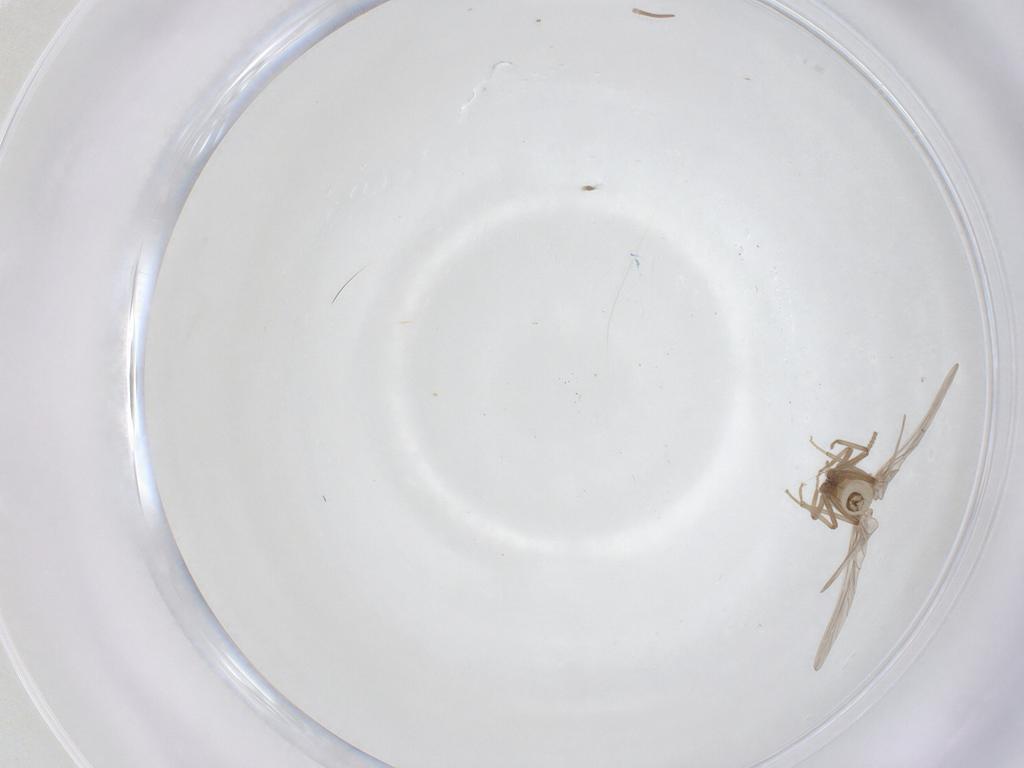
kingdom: Animalia
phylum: Arthropoda
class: Insecta
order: Neuroptera
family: Coniopterygidae
